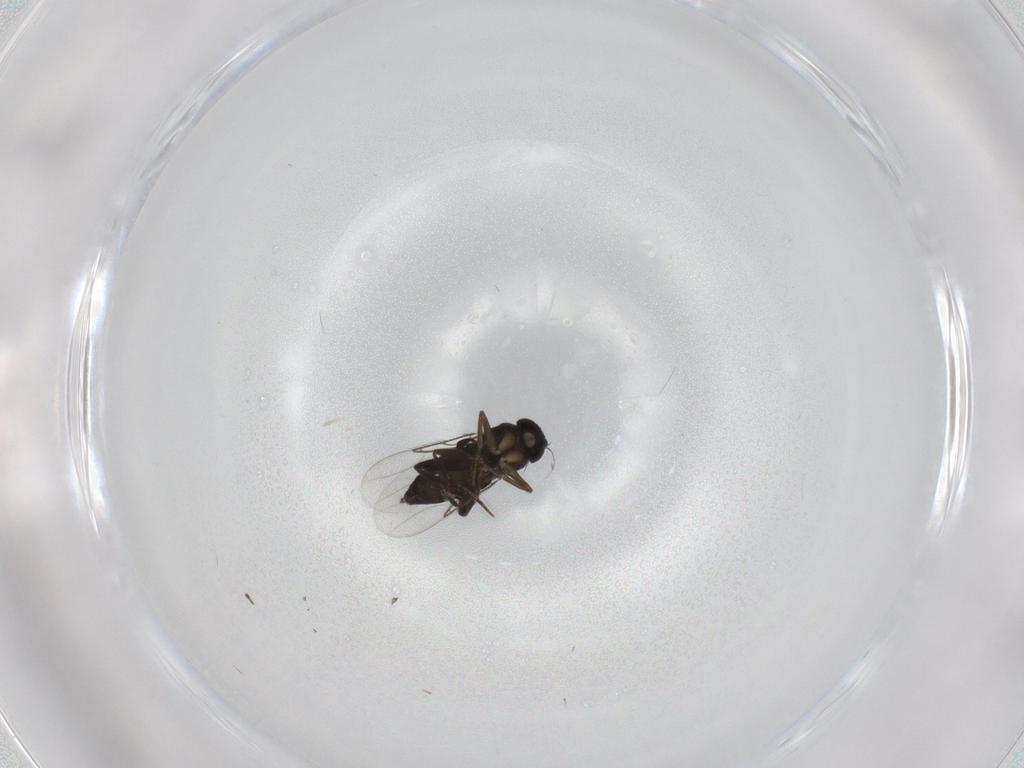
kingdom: Animalia
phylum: Arthropoda
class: Insecta
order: Diptera
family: Phoridae
